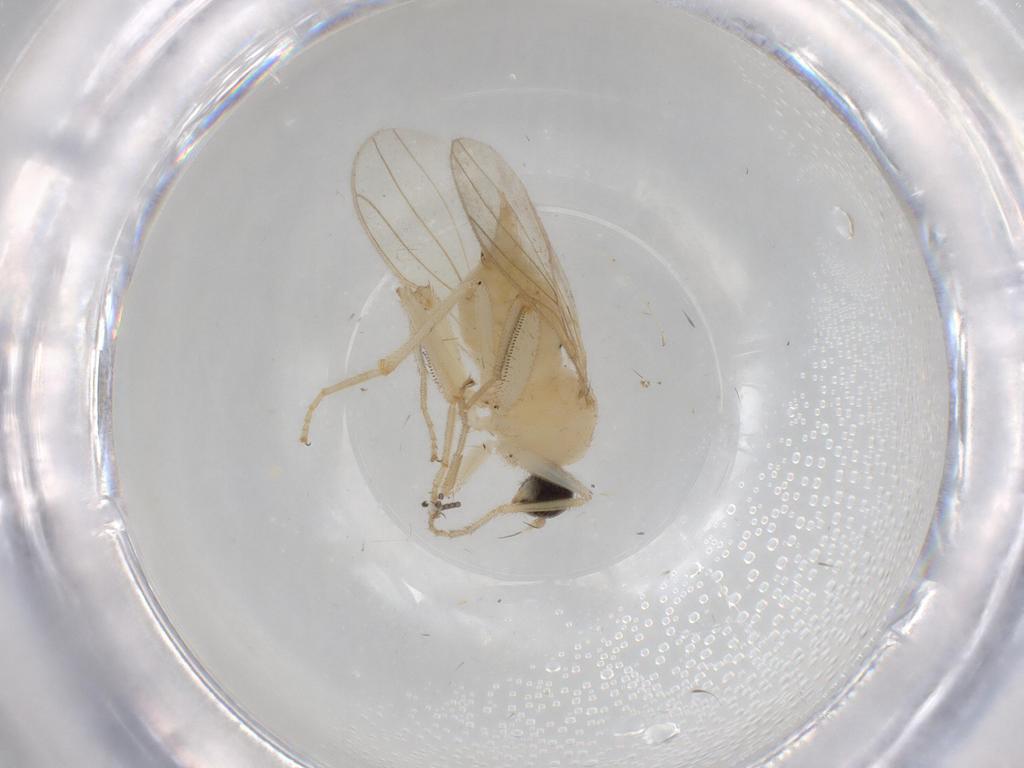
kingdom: Animalia
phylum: Arthropoda
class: Insecta
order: Diptera
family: Hybotidae
